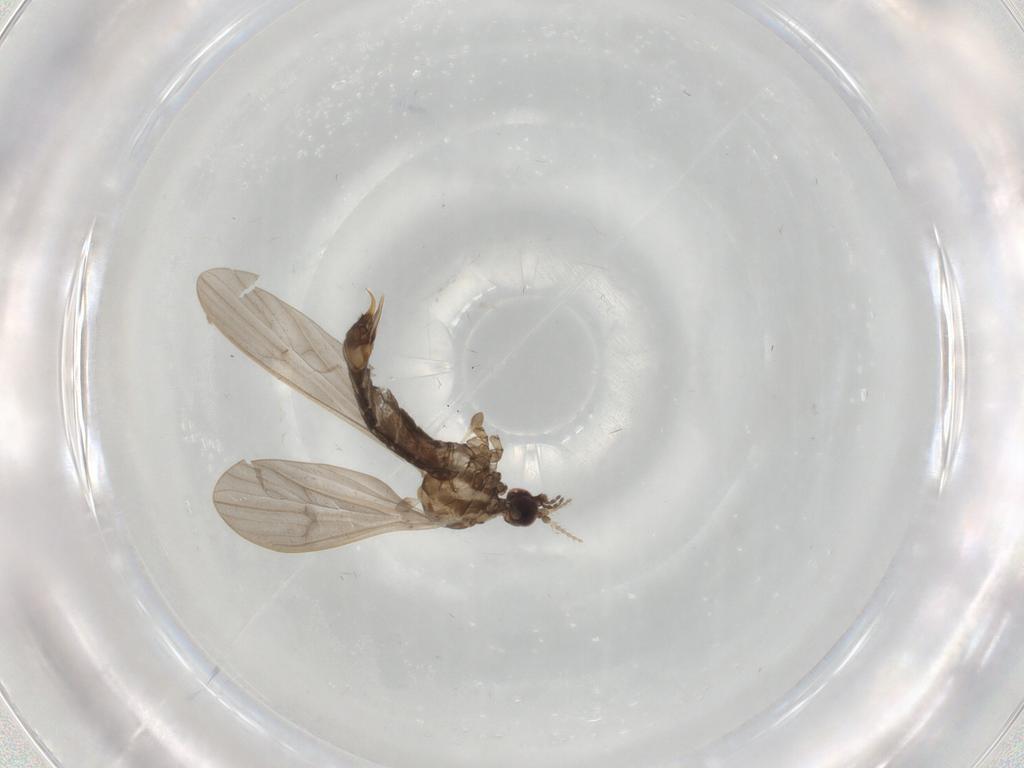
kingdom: Animalia
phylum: Arthropoda
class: Insecta
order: Diptera
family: Limoniidae
